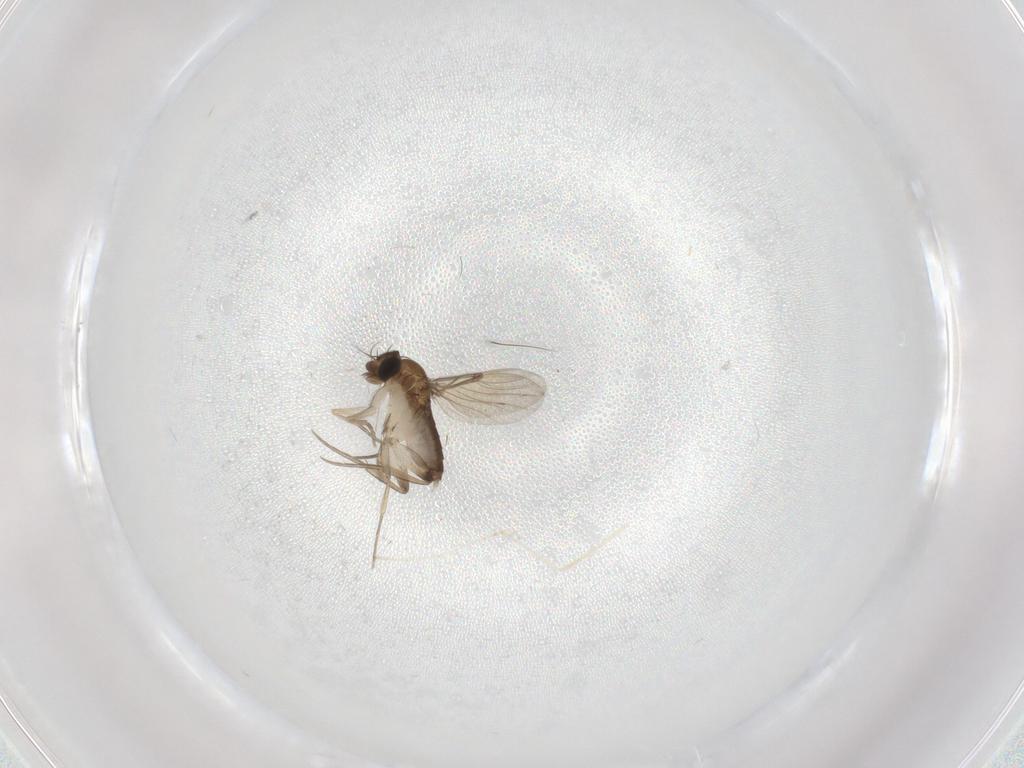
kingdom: Animalia
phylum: Arthropoda
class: Insecta
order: Diptera
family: Phoridae
